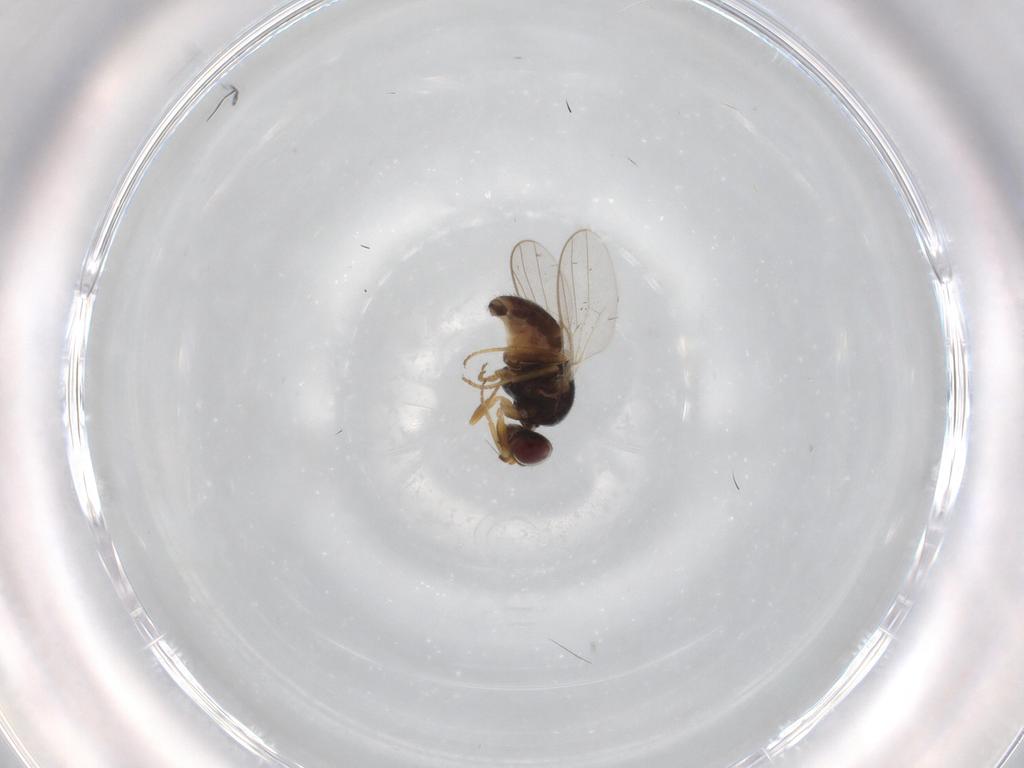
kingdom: Animalia
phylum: Arthropoda
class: Insecta
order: Diptera
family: Chloropidae
